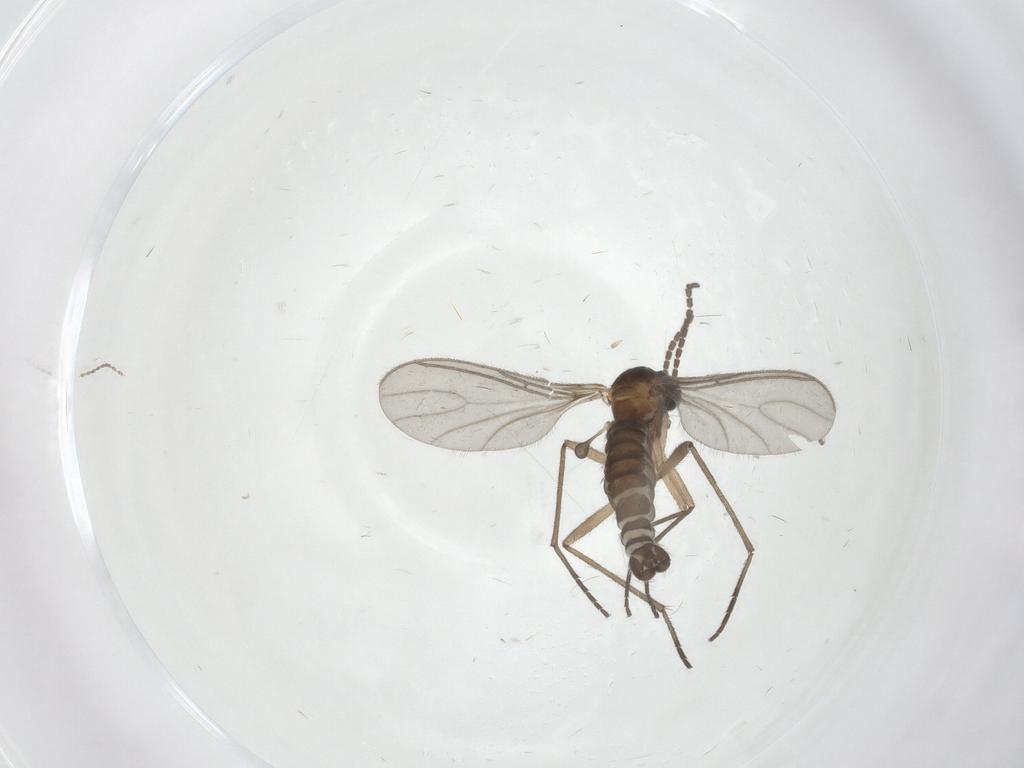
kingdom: Animalia
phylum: Arthropoda
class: Insecta
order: Diptera
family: Cecidomyiidae
